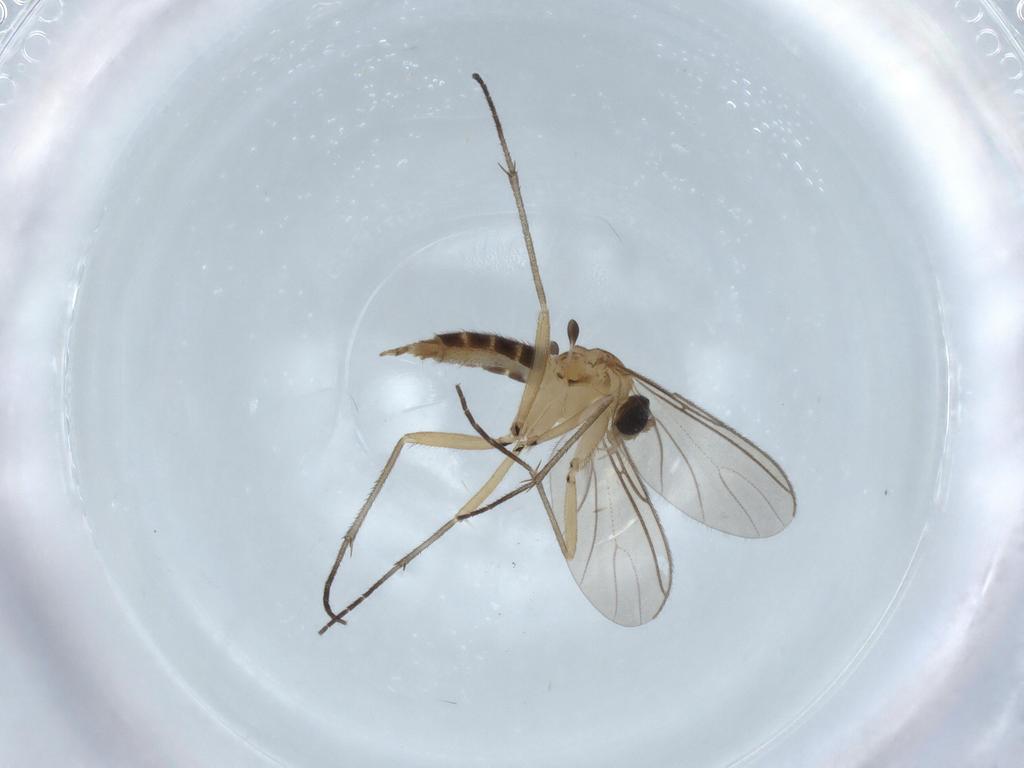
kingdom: Animalia
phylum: Arthropoda
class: Insecta
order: Diptera
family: Sciaridae
